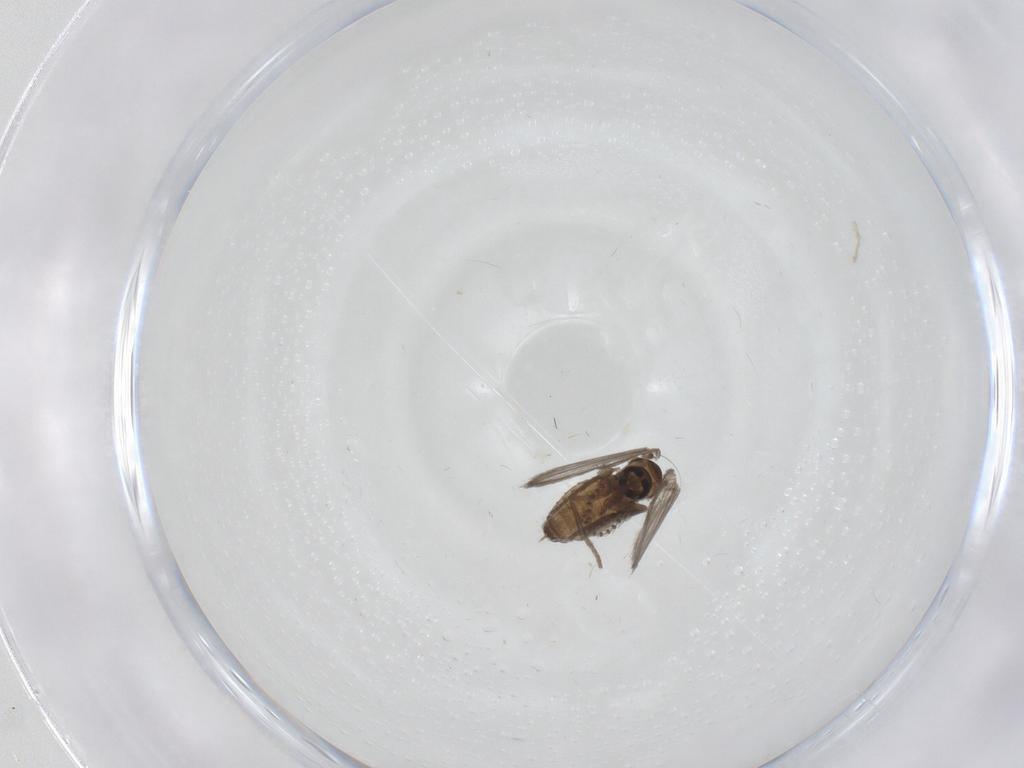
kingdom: Animalia
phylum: Arthropoda
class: Insecta
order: Diptera
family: Psychodidae
